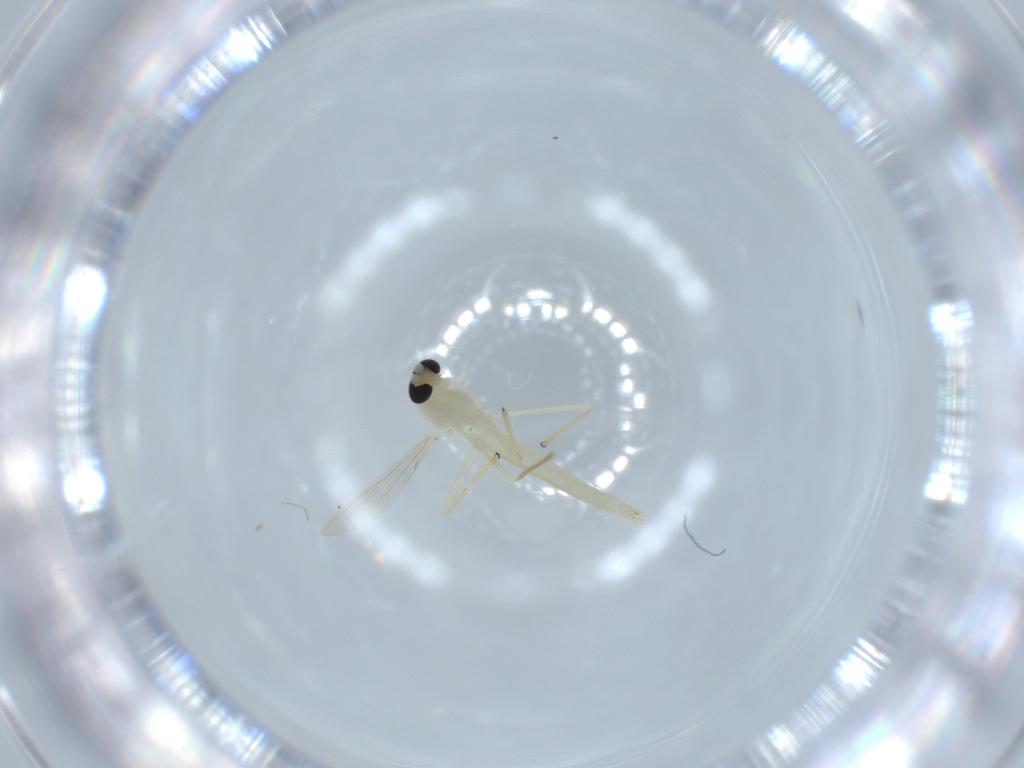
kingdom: Animalia
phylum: Arthropoda
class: Insecta
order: Diptera
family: Chironomidae
